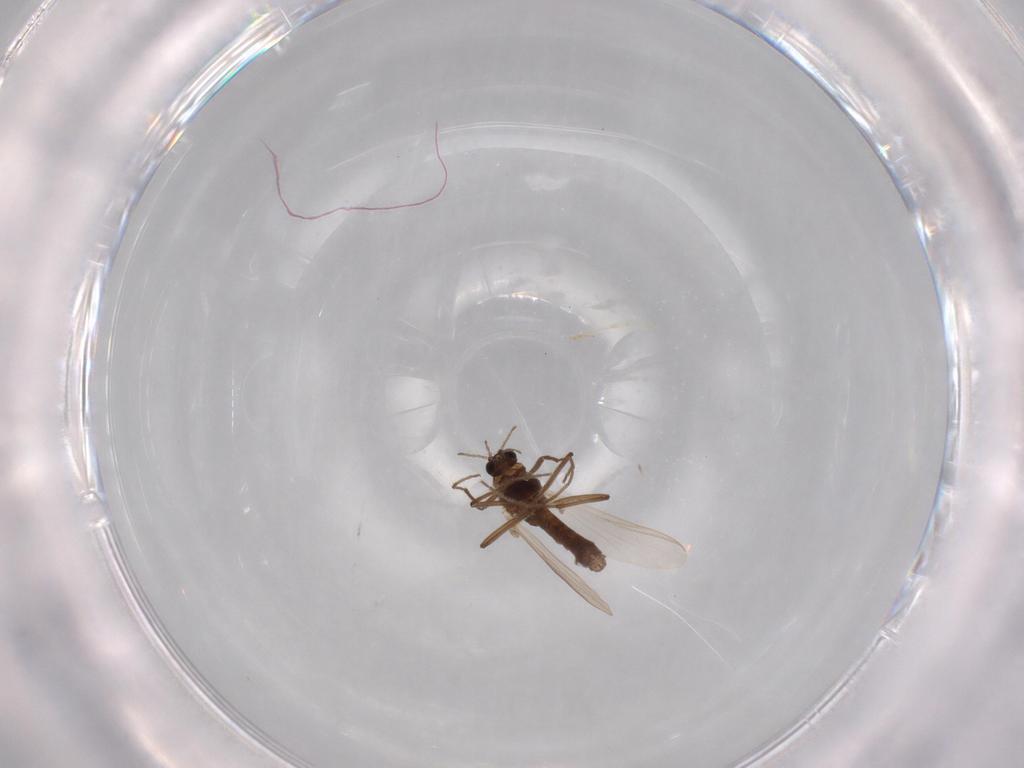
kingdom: Animalia
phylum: Arthropoda
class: Insecta
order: Diptera
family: Chironomidae
